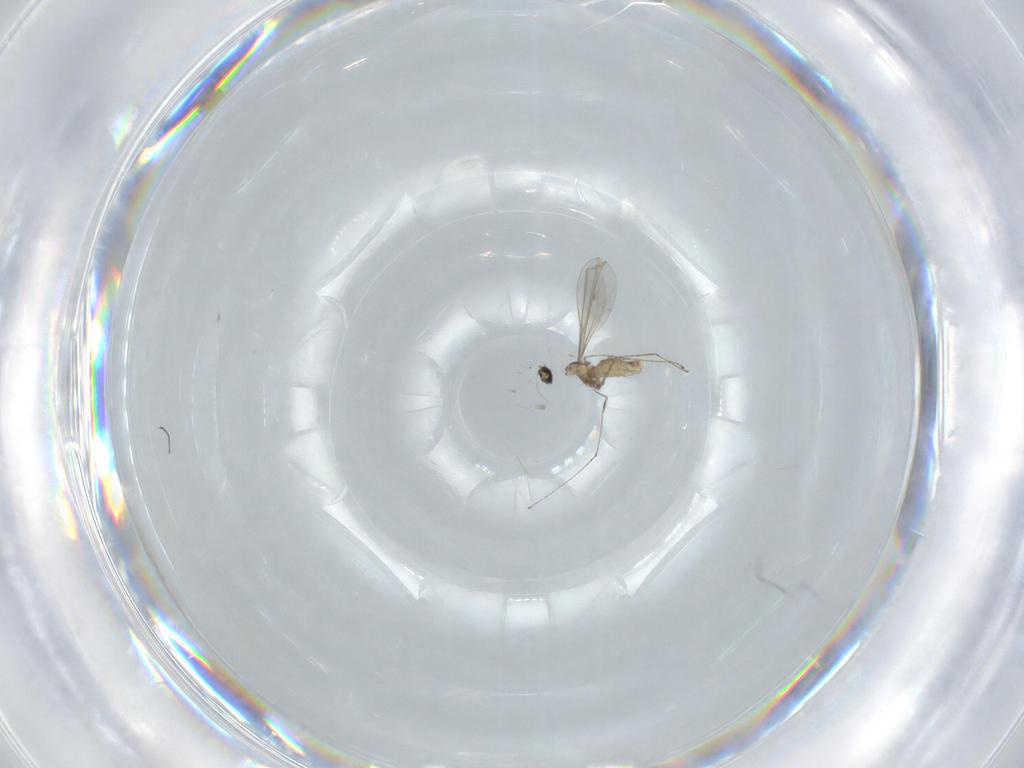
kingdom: Animalia
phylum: Arthropoda
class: Insecta
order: Diptera
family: Cecidomyiidae
